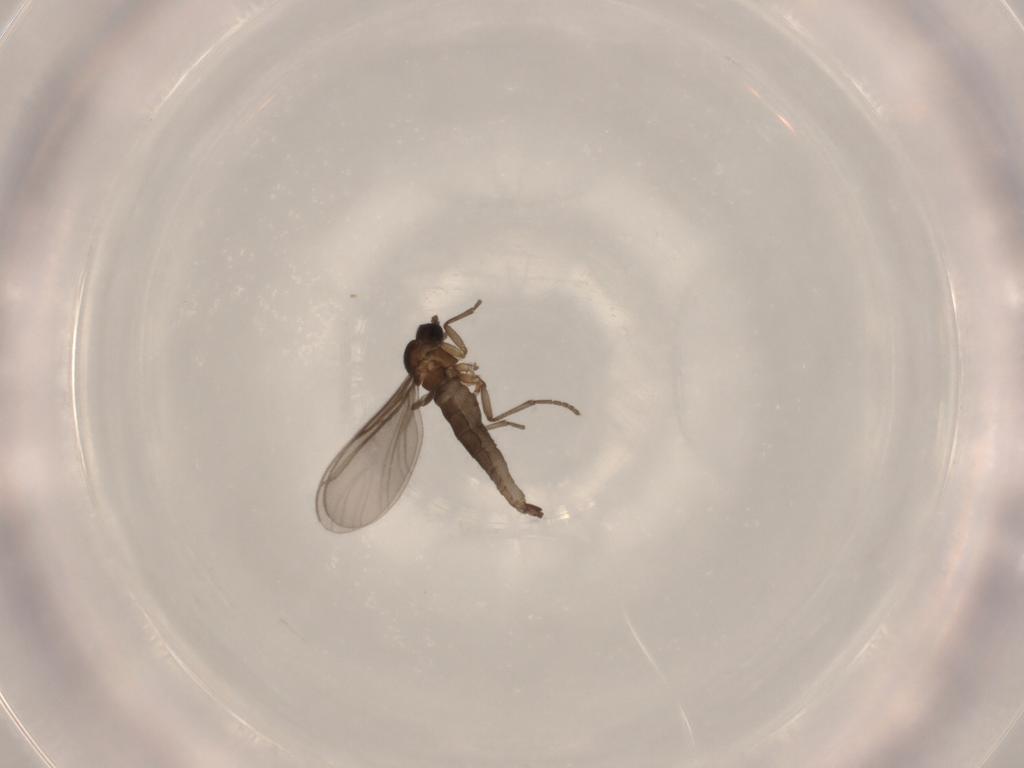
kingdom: Animalia
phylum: Arthropoda
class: Insecta
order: Diptera
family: Sciaridae
